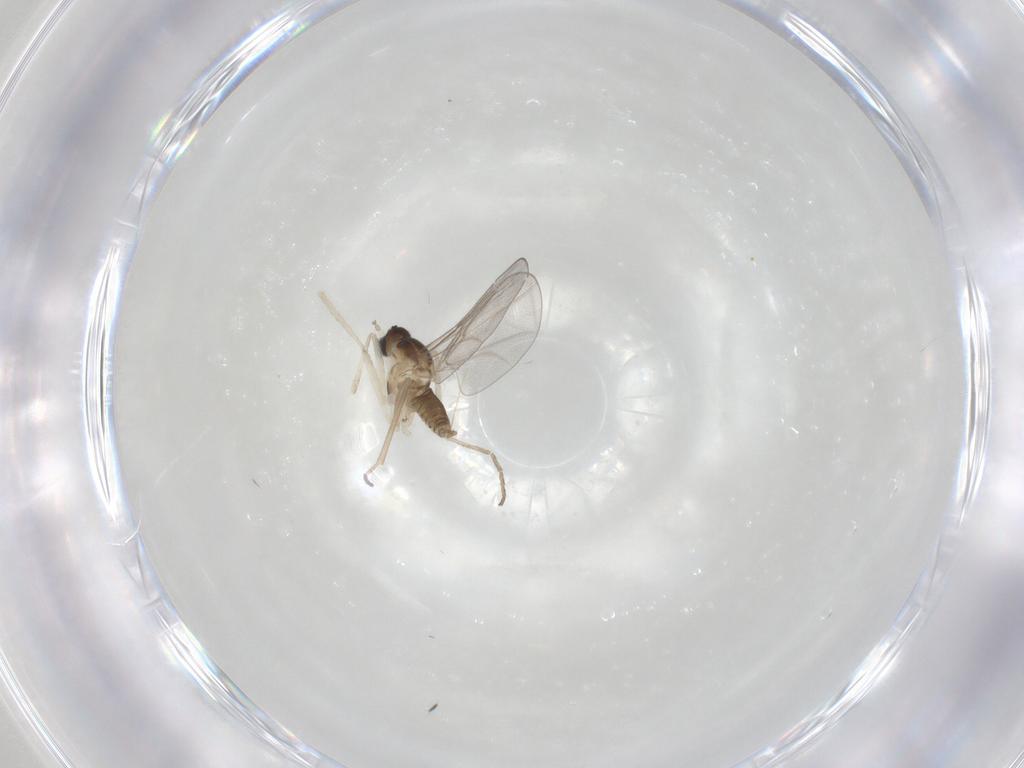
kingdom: Animalia
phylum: Arthropoda
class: Insecta
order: Diptera
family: Cecidomyiidae
